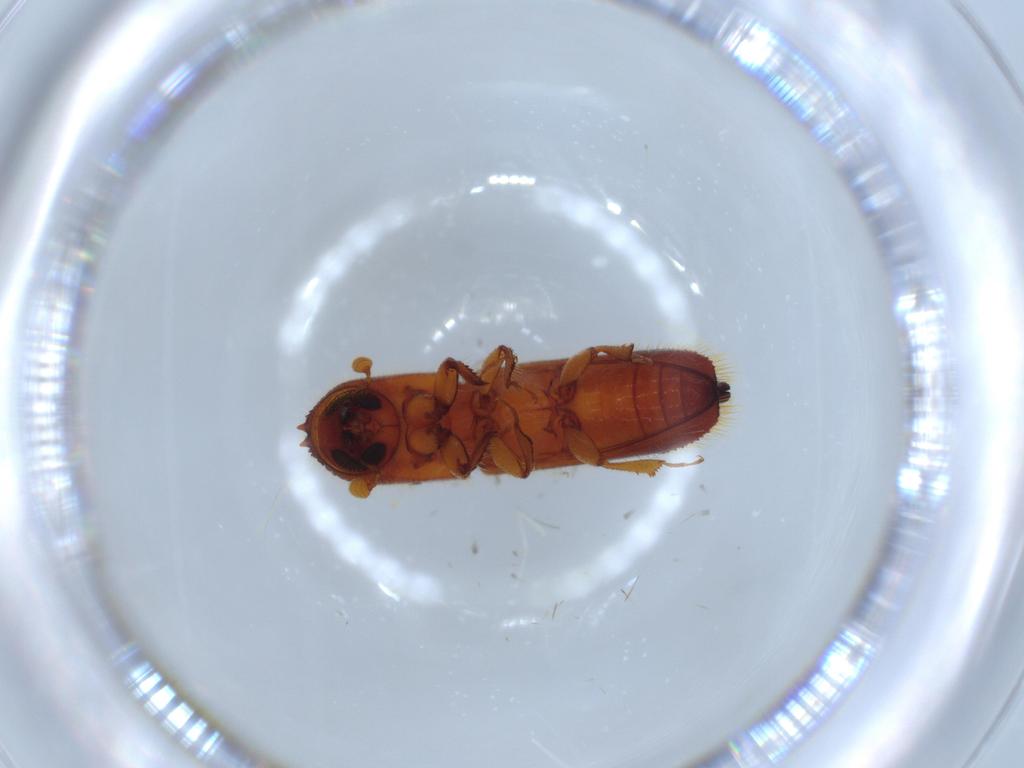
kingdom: Animalia
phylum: Arthropoda
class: Insecta
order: Coleoptera
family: Curculionidae
